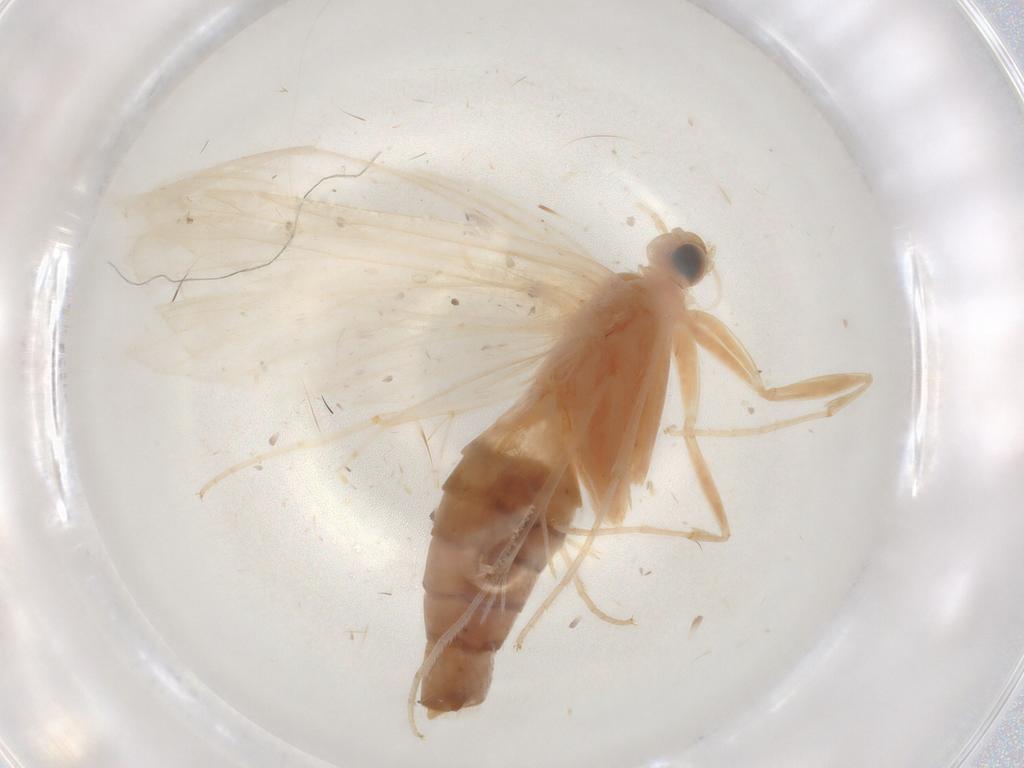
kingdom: Animalia
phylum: Arthropoda
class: Insecta
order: Lepidoptera
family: Crambidae
